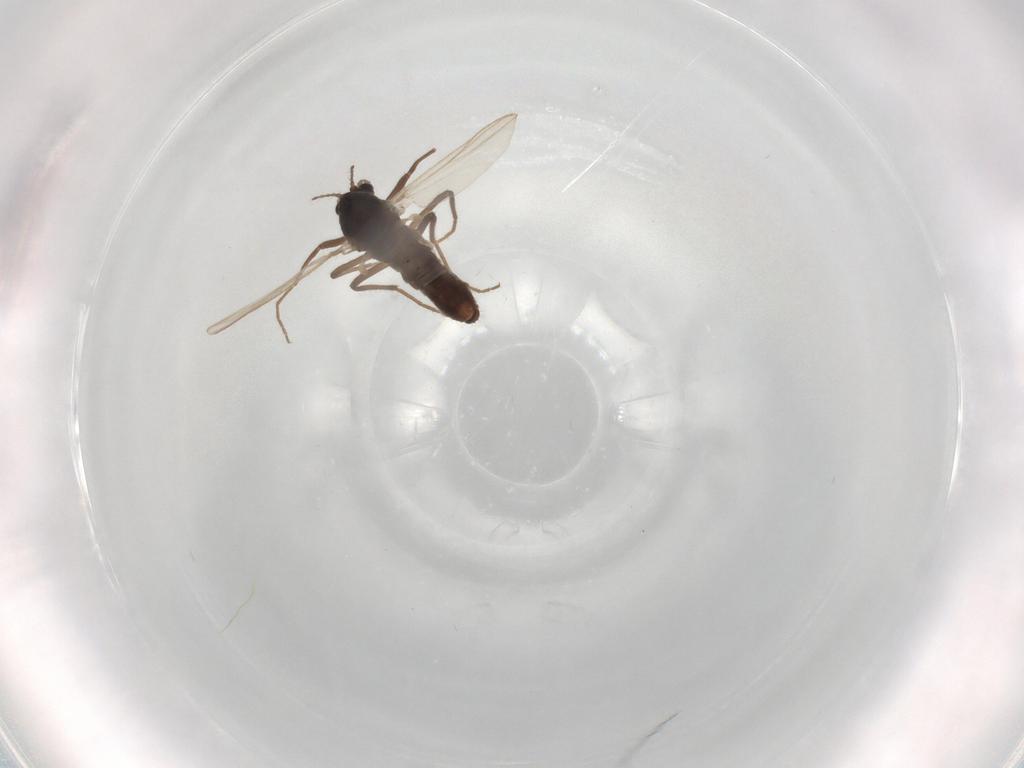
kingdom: Animalia
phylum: Arthropoda
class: Insecta
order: Diptera
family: Chironomidae
